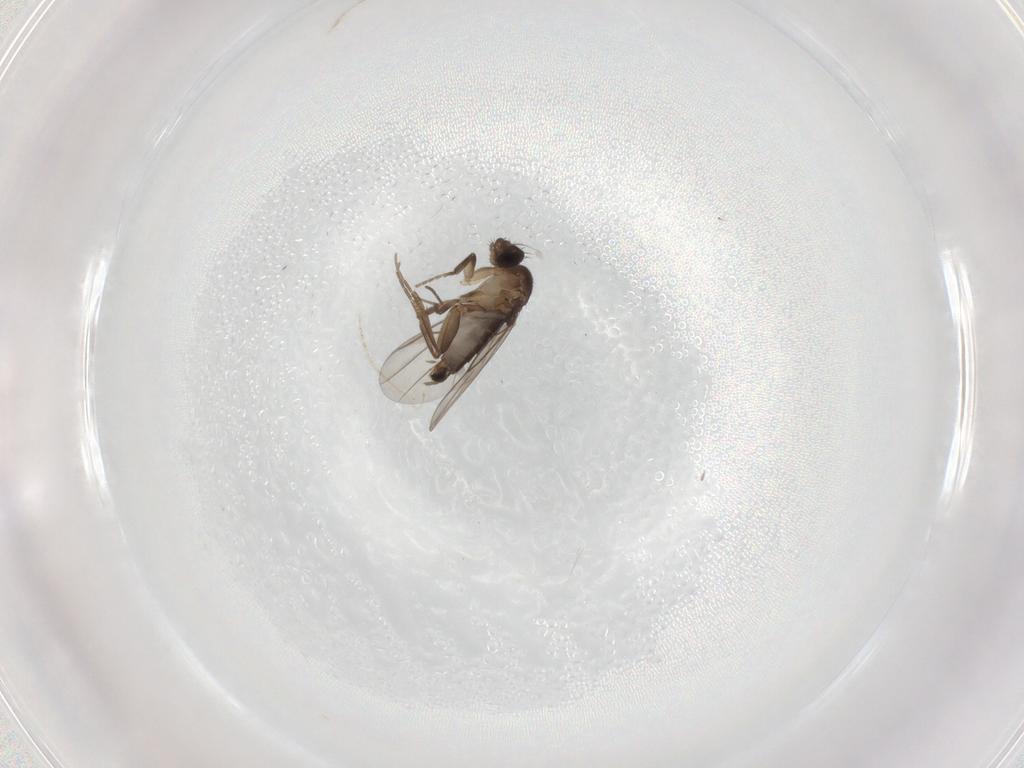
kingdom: Animalia
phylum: Arthropoda
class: Insecta
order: Diptera
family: Phoridae
